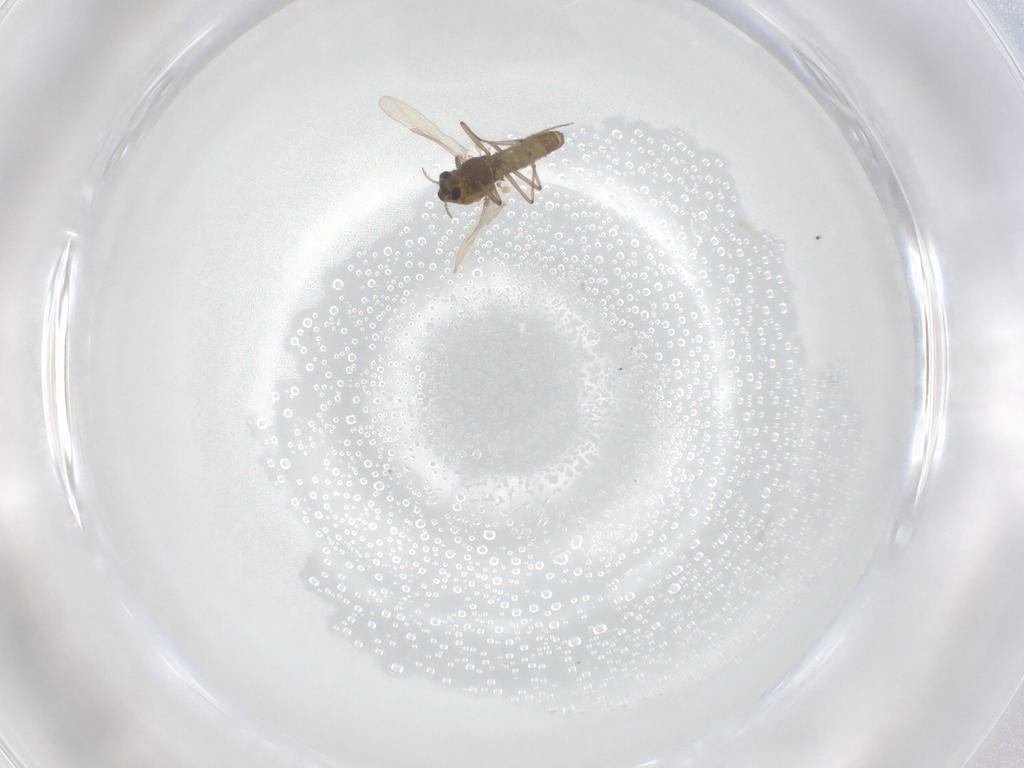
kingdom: Animalia
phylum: Arthropoda
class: Insecta
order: Diptera
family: Chironomidae
